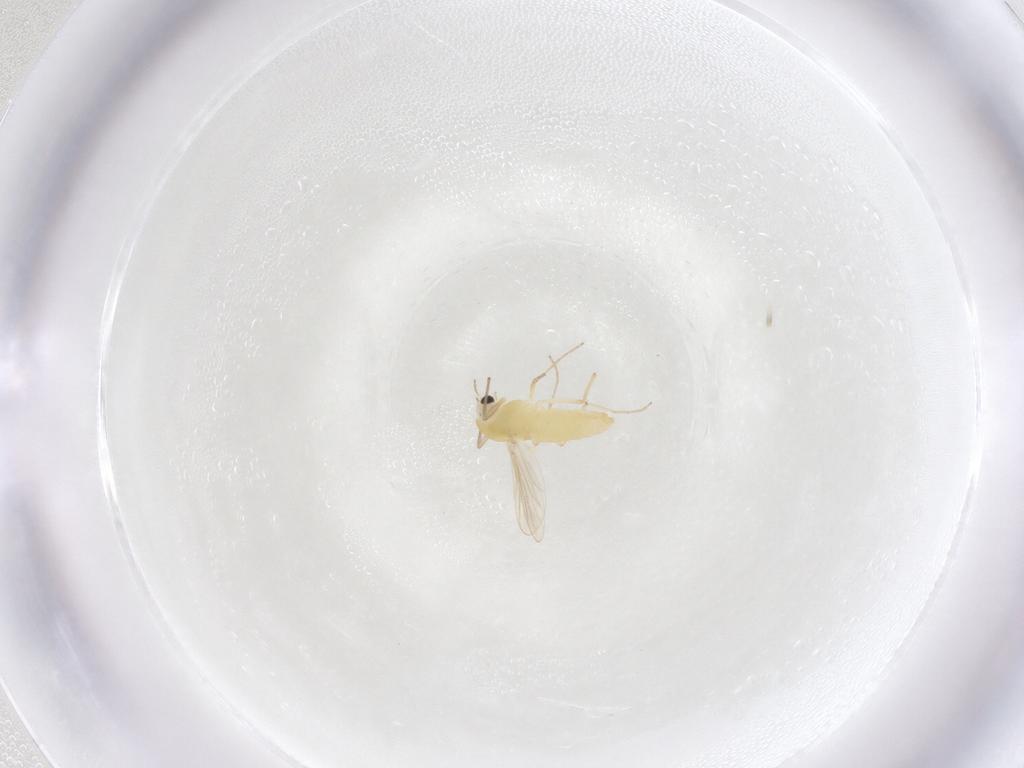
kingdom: Animalia
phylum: Arthropoda
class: Insecta
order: Diptera
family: Chironomidae
